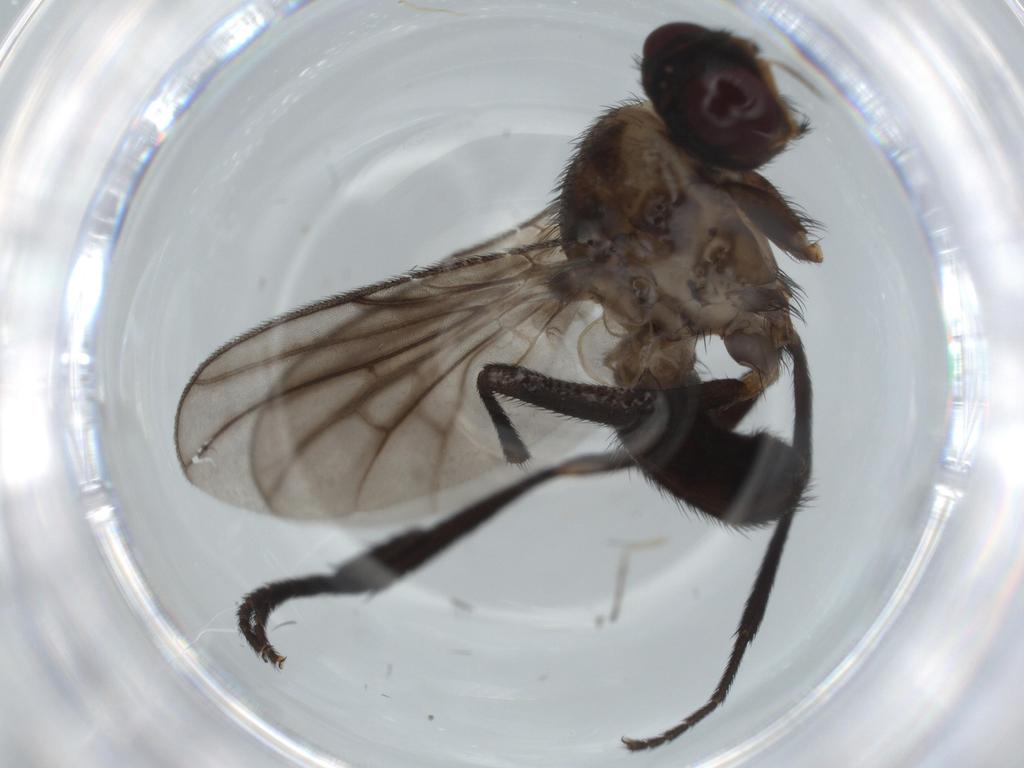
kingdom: Animalia
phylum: Arthropoda
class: Insecta
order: Diptera
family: Calliphoridae
